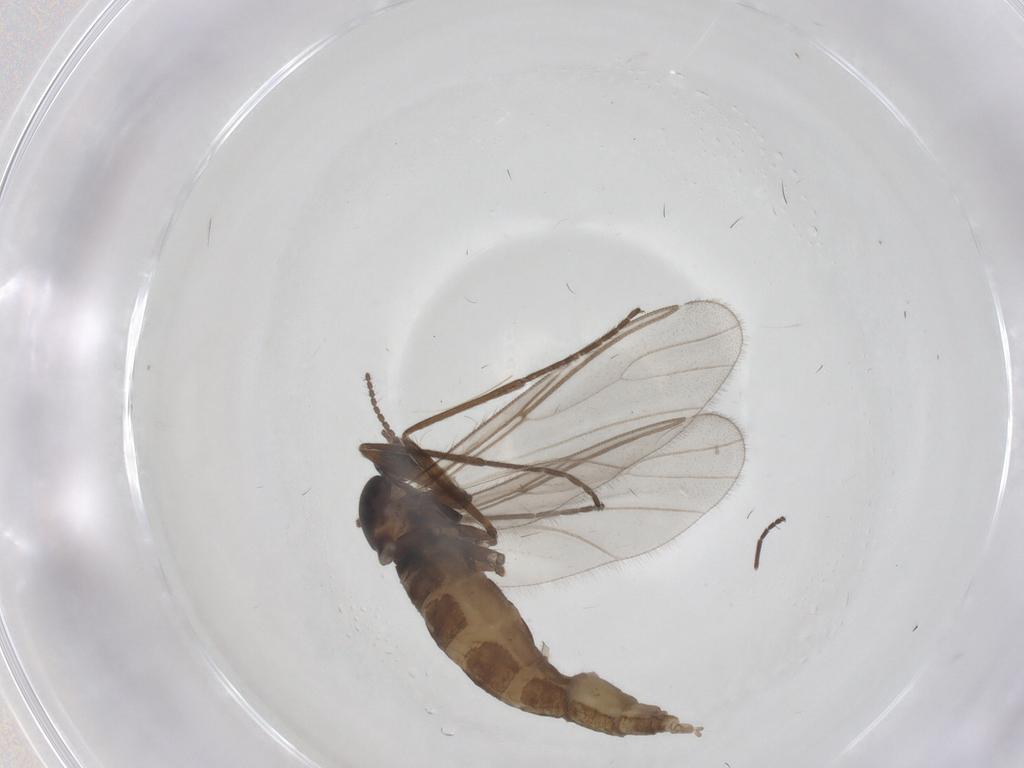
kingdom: Animalia
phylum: Arthropoda
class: Insecta
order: Diptera
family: Cecidomyiidae
